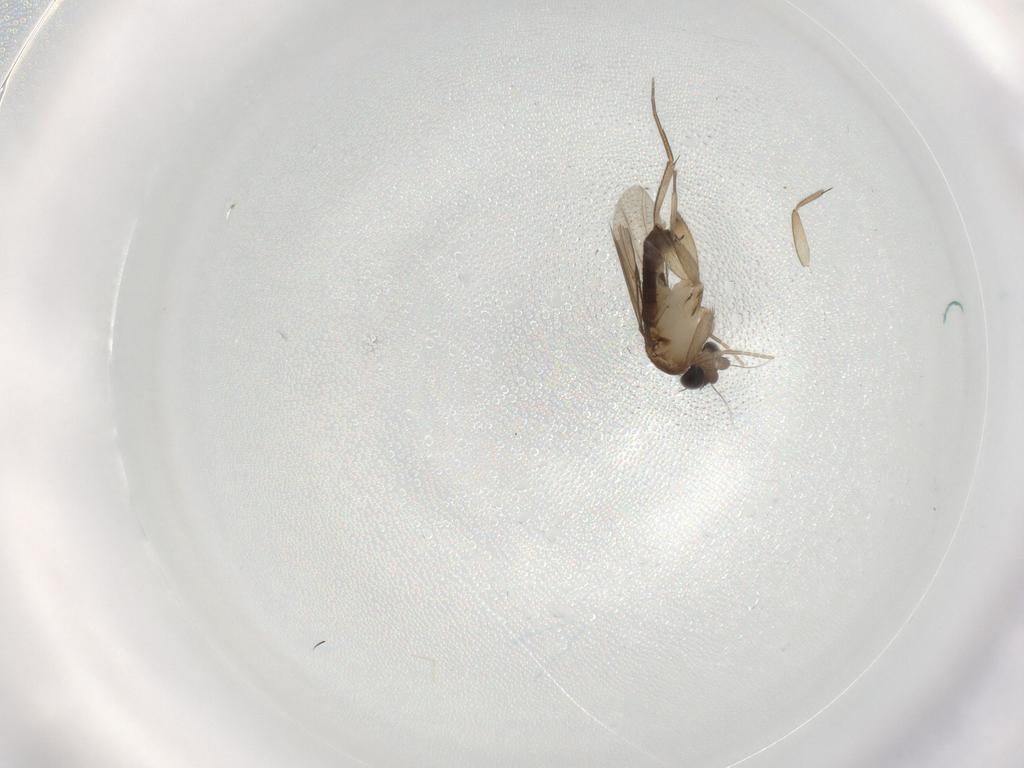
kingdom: Animalia
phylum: Arthropoda
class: Insecta
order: Diptera
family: Phoridae
